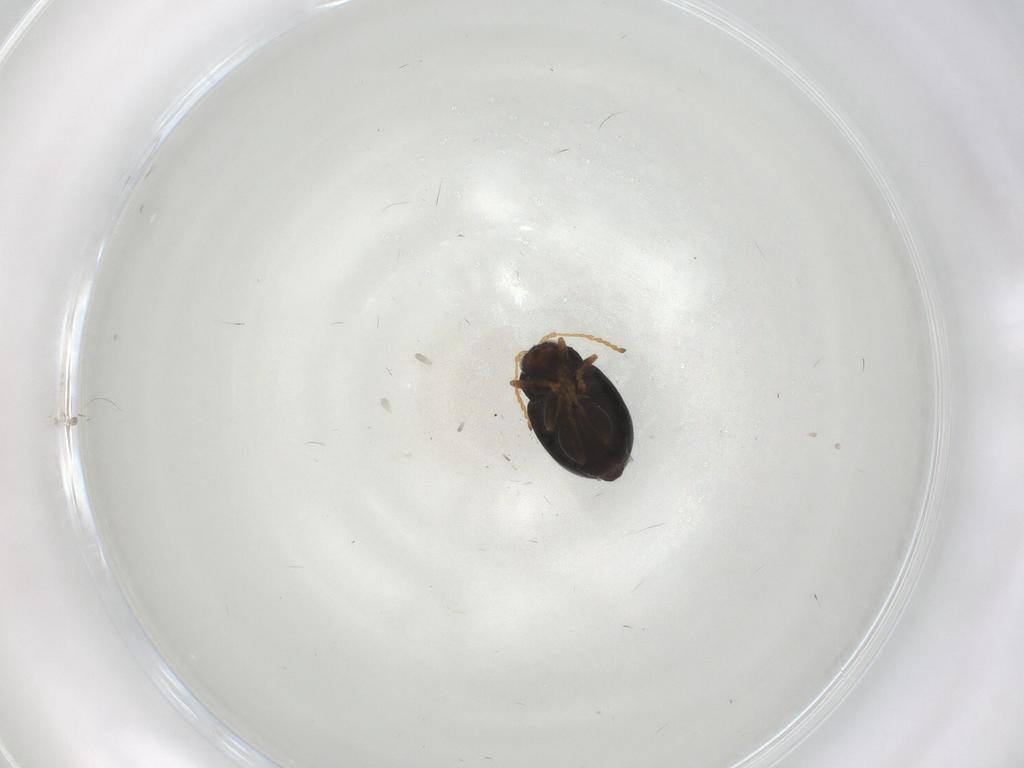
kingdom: Animalia
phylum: Arthropoda
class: Insecta
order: Coleoptera
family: Chrysomelidae
